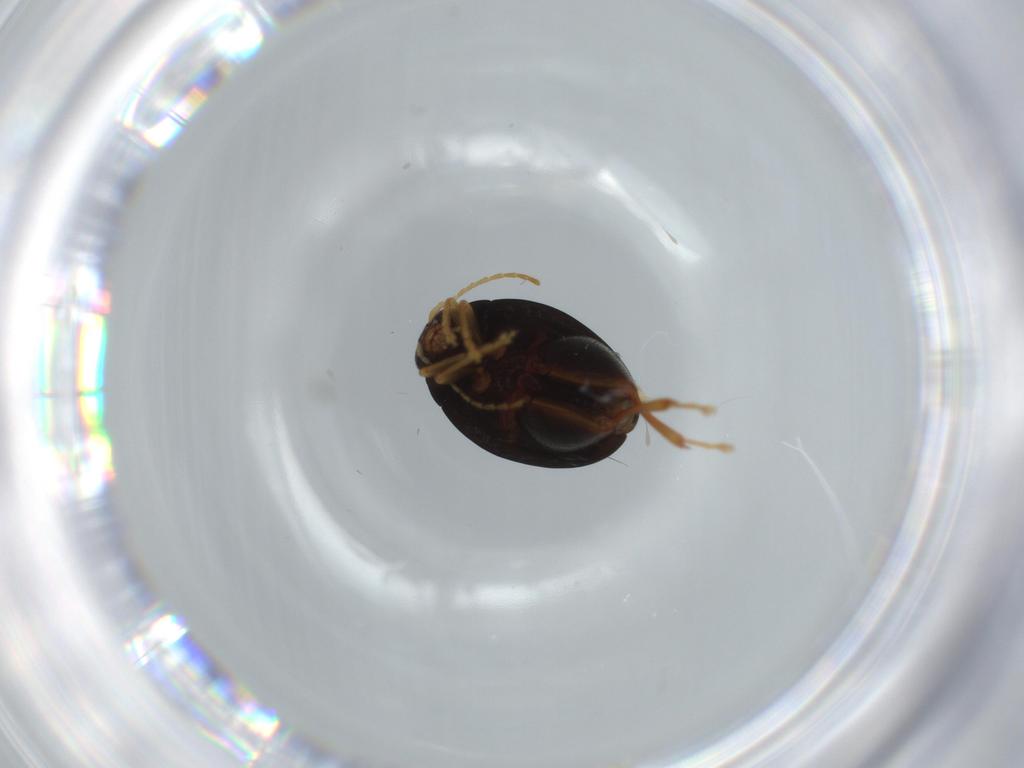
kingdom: Animalia
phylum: Arthropoda
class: Insecta
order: Coleoptera
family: Chrysomelidae
